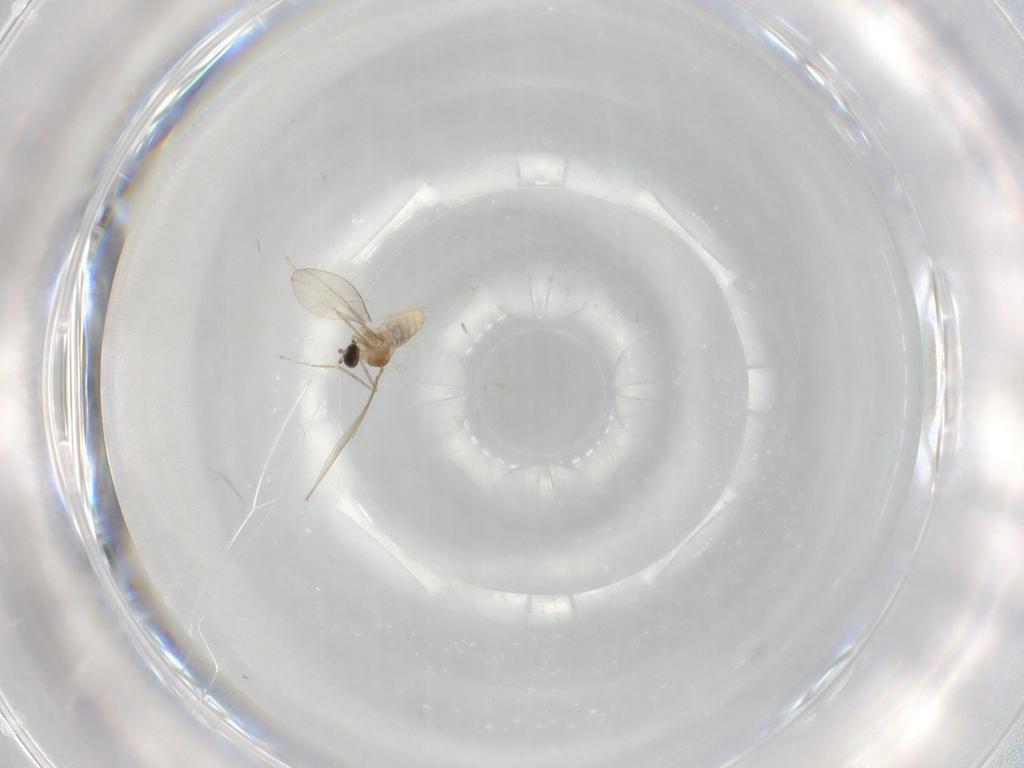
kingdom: Animalia
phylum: Arthropoda
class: Insecta
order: Diptera
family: Cecidomyiidae
